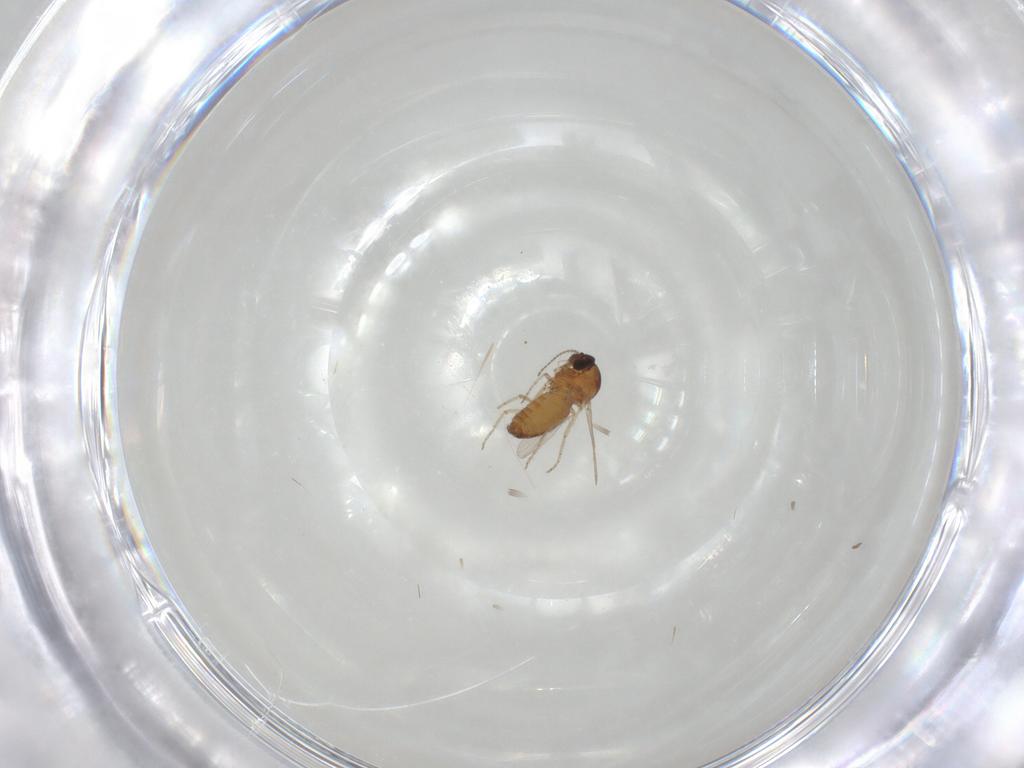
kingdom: Animalia
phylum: Arthropoda
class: Insecta
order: Diptera
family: Ceratopogonidae
